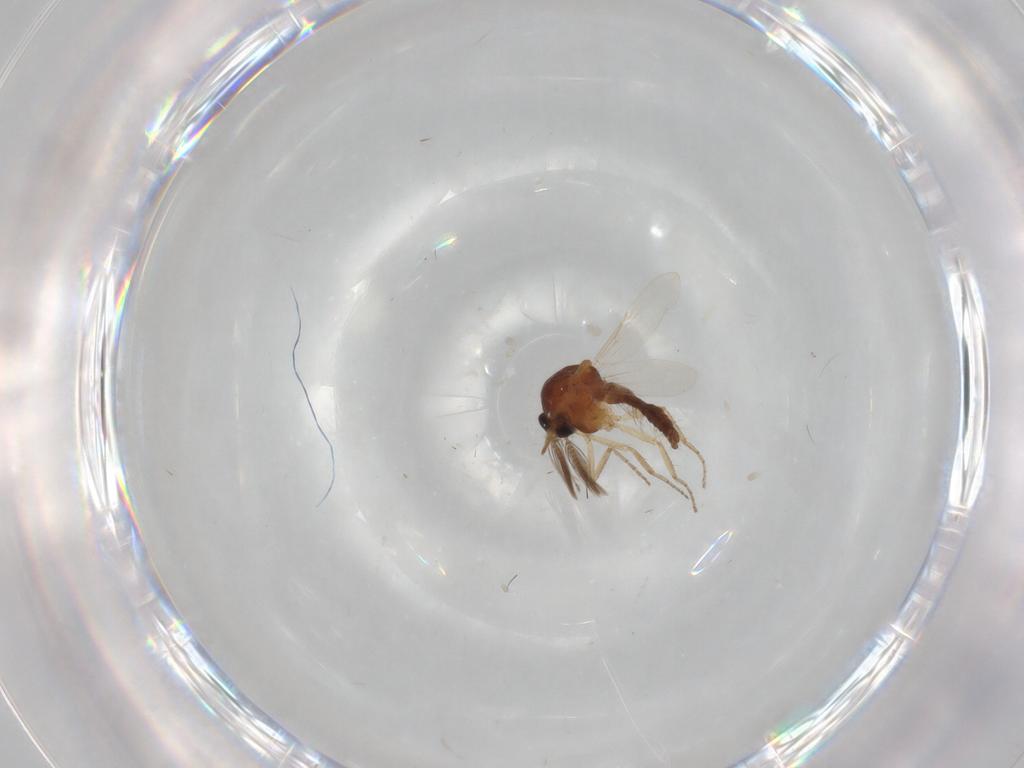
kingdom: Animalia
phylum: Arthropoda
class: Insecta
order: Diptera
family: Ceratopogonidae
